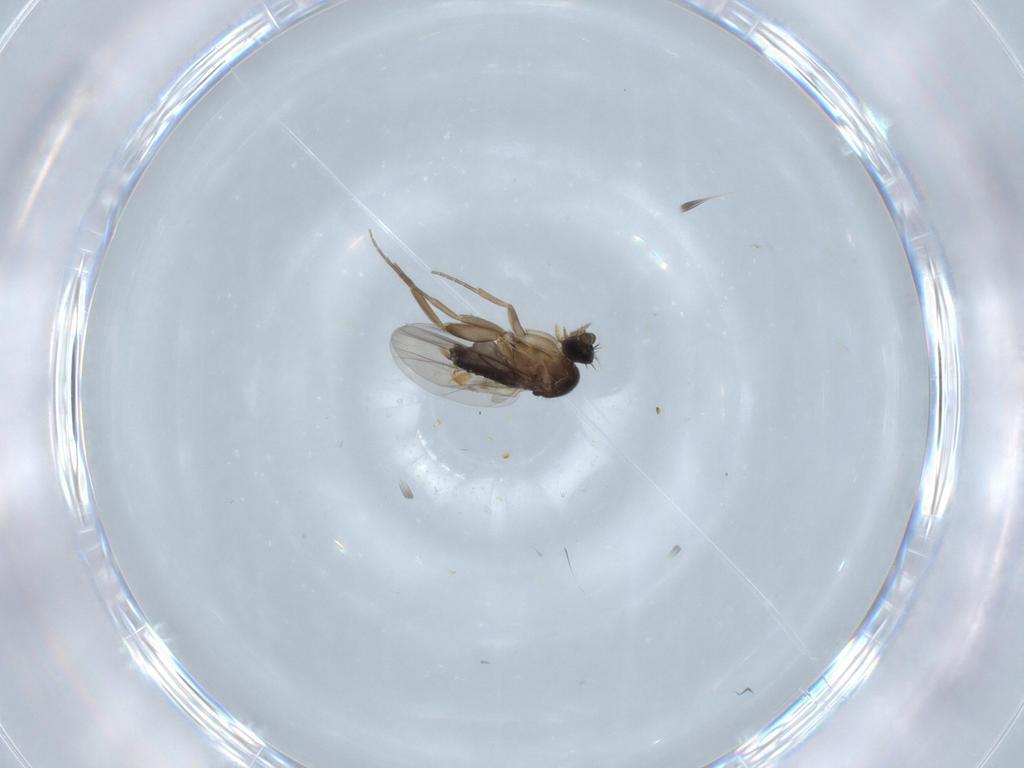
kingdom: Animalia
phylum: Arthropoda
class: Insecta
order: Diptera
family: Phoridae
